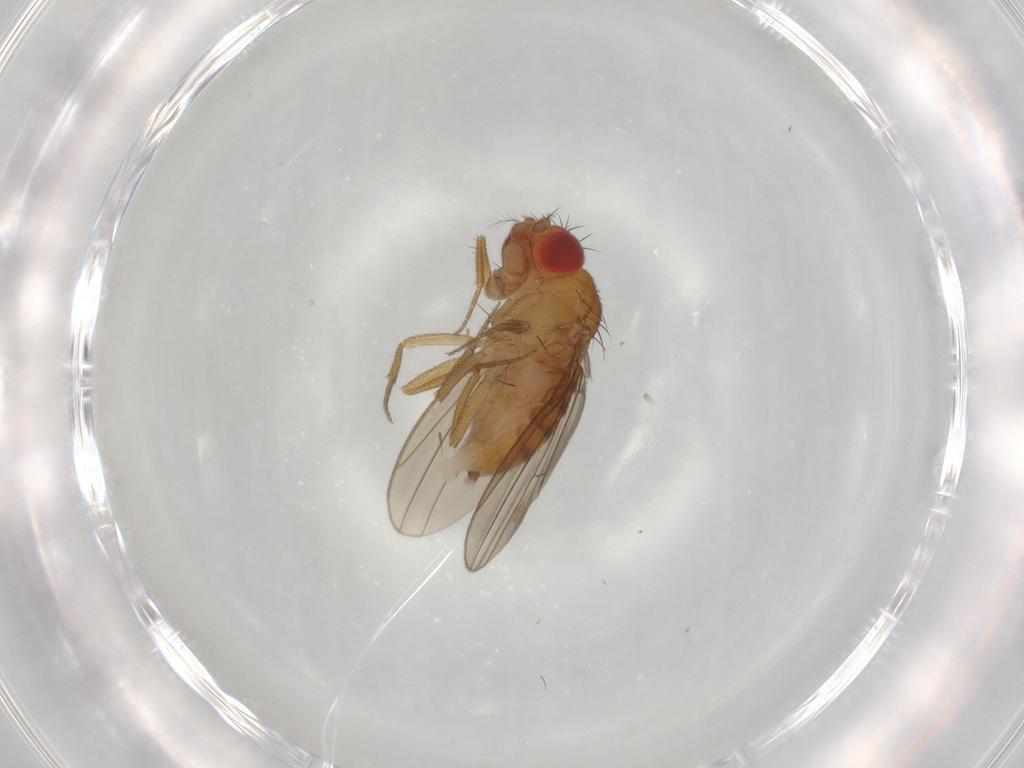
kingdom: Animalia
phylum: Arthropoda
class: Insecta
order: Diptera
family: Drosophilidae
